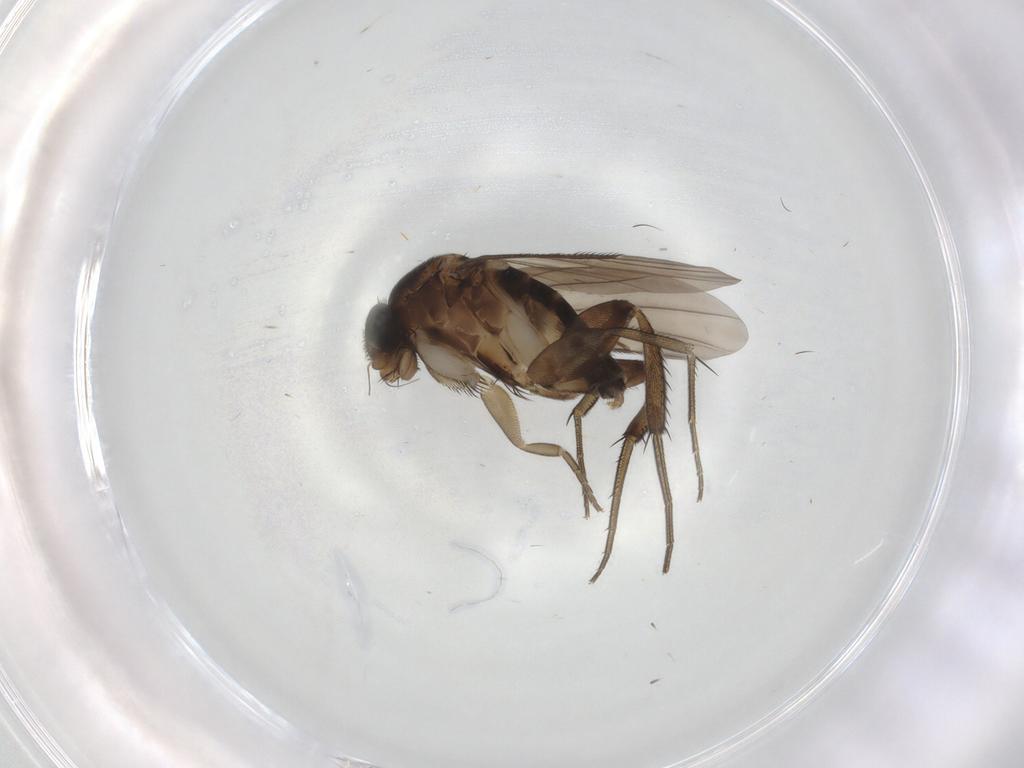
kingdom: Animalia
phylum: Arthropoda
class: Insecta
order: Diptera
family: Phoridae
